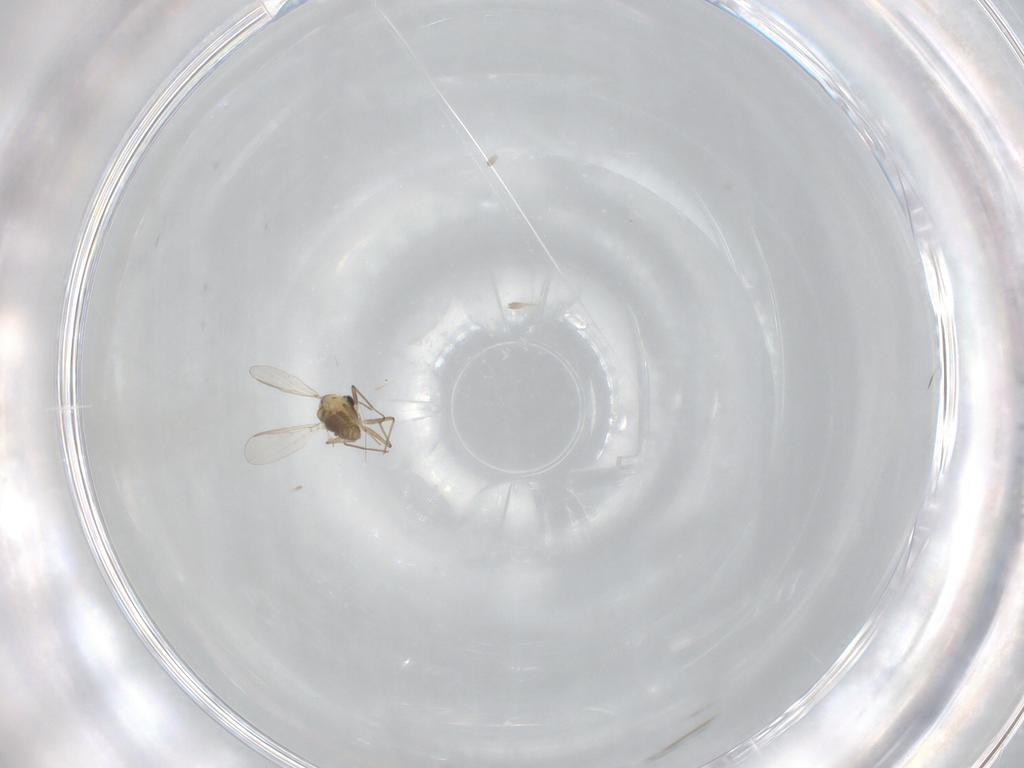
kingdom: Animalia
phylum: Arthropoda
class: Insecta
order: Diptera
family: Chironomidae
